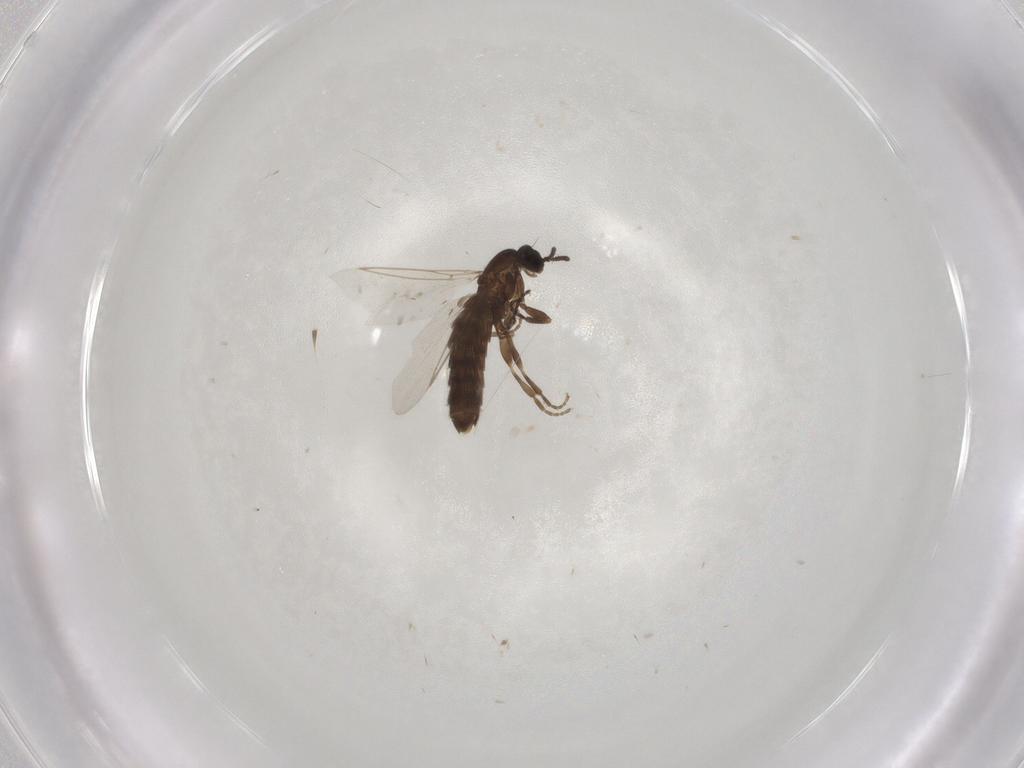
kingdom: Animalia
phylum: Arthropoda
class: Insecta
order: Diptera
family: Scatopsidae
